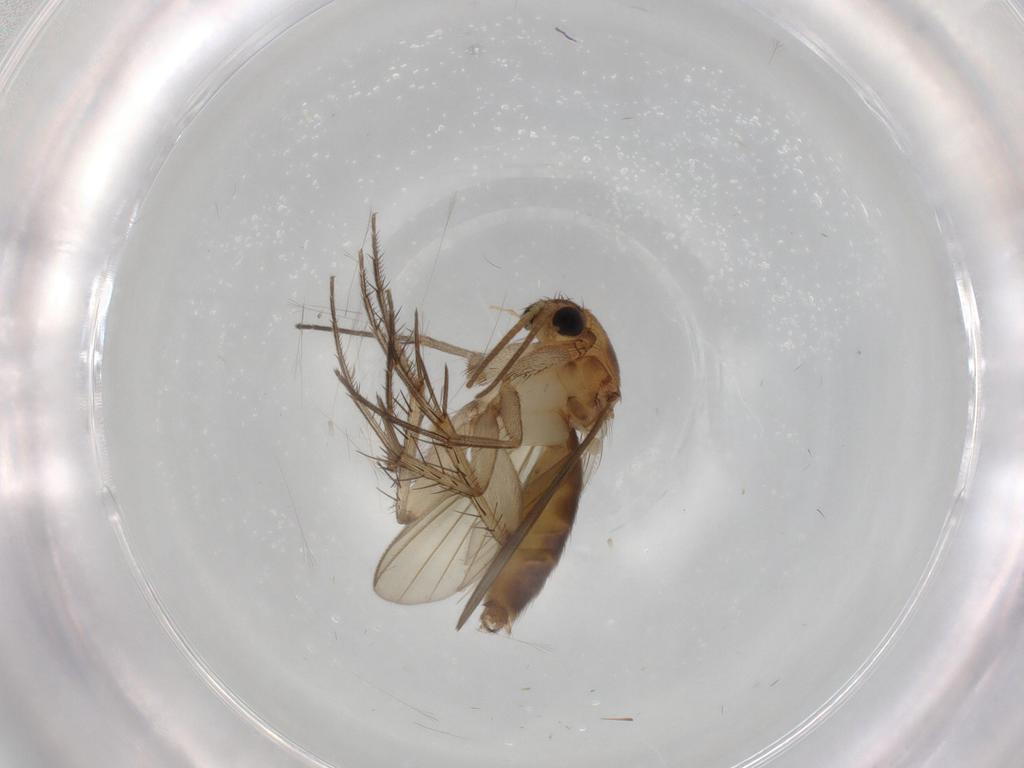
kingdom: Animalia
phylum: Arthropoda
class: Insecta
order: Diptera
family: Mycetophilidae
